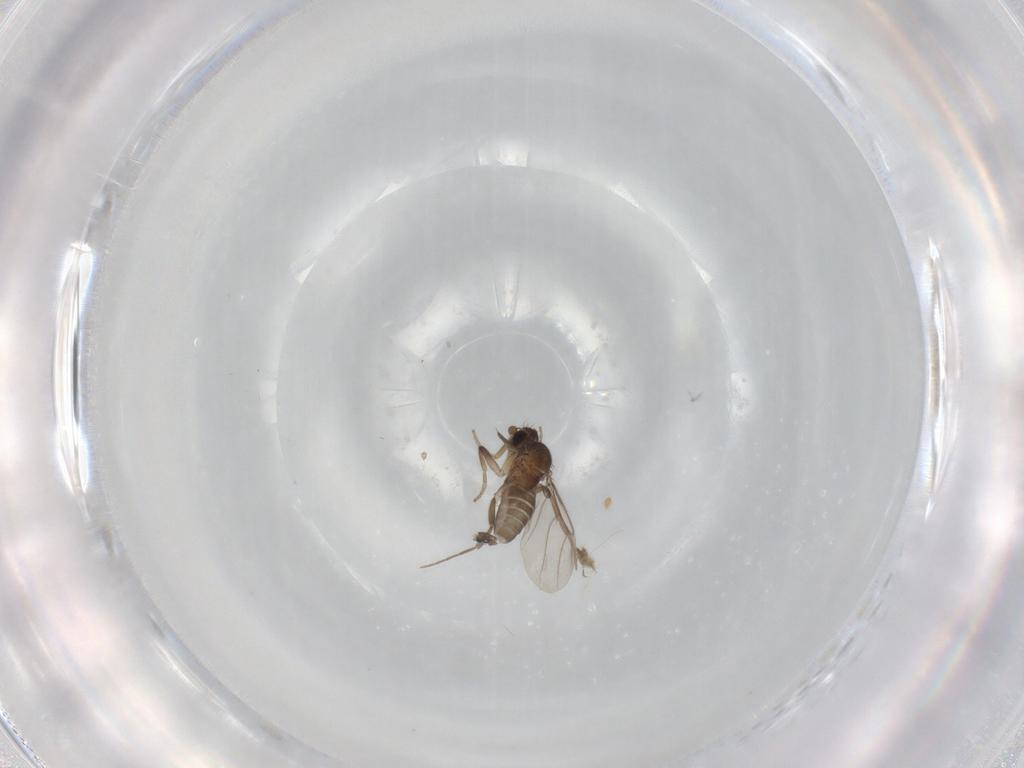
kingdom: Animalia
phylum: Arthropoda
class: Insecta
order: Diptera
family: Phoridae
